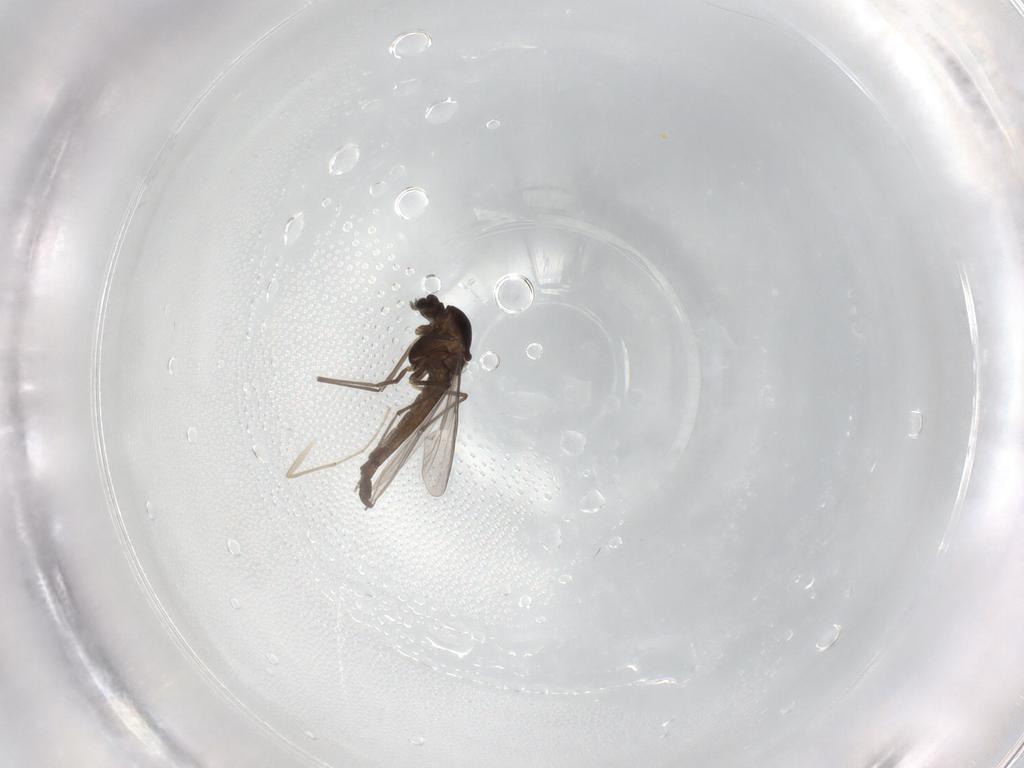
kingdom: Animalia
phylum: Arthropoda
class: Insecta
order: Diptera
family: Chironomidae
